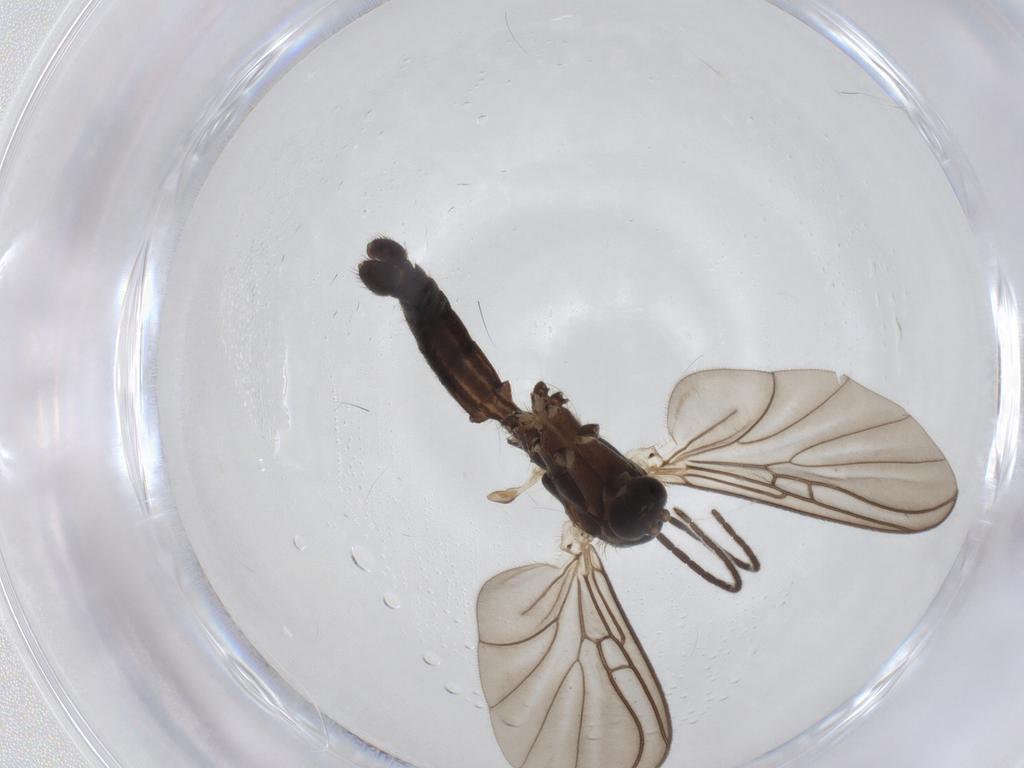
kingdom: Animalia
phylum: Arthropoda
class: Insecta
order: Diptera
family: Mycetophilidae
